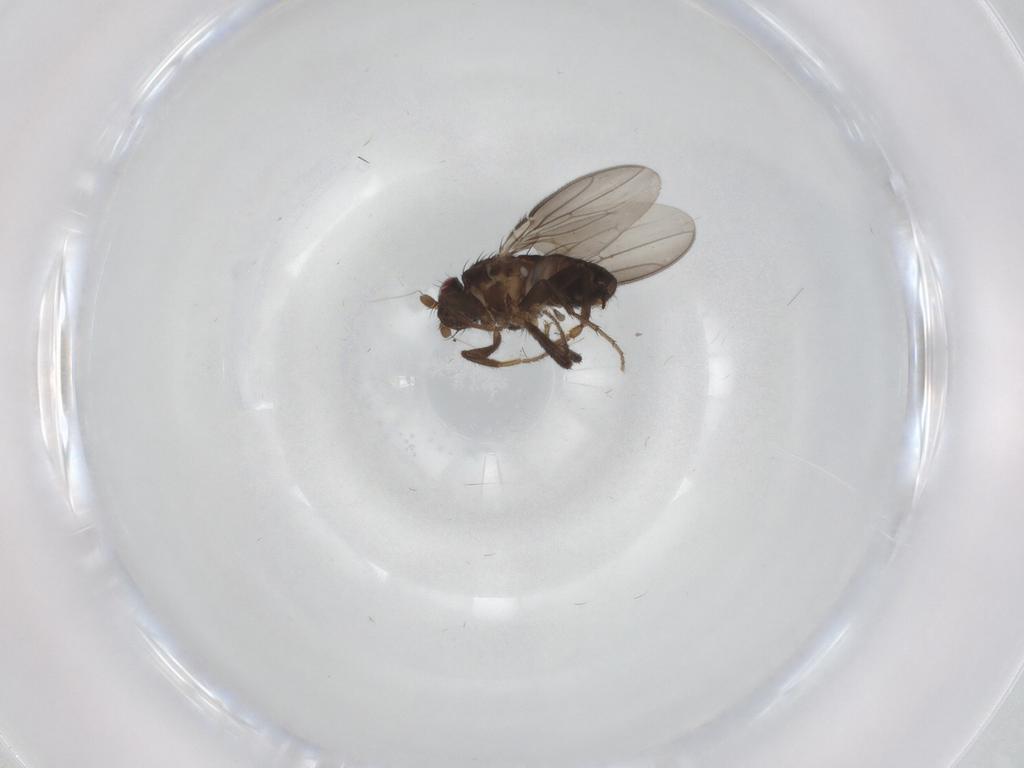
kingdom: Animalia
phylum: Arthropoda
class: Insecta
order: Diptera
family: Sphaeroceridae
